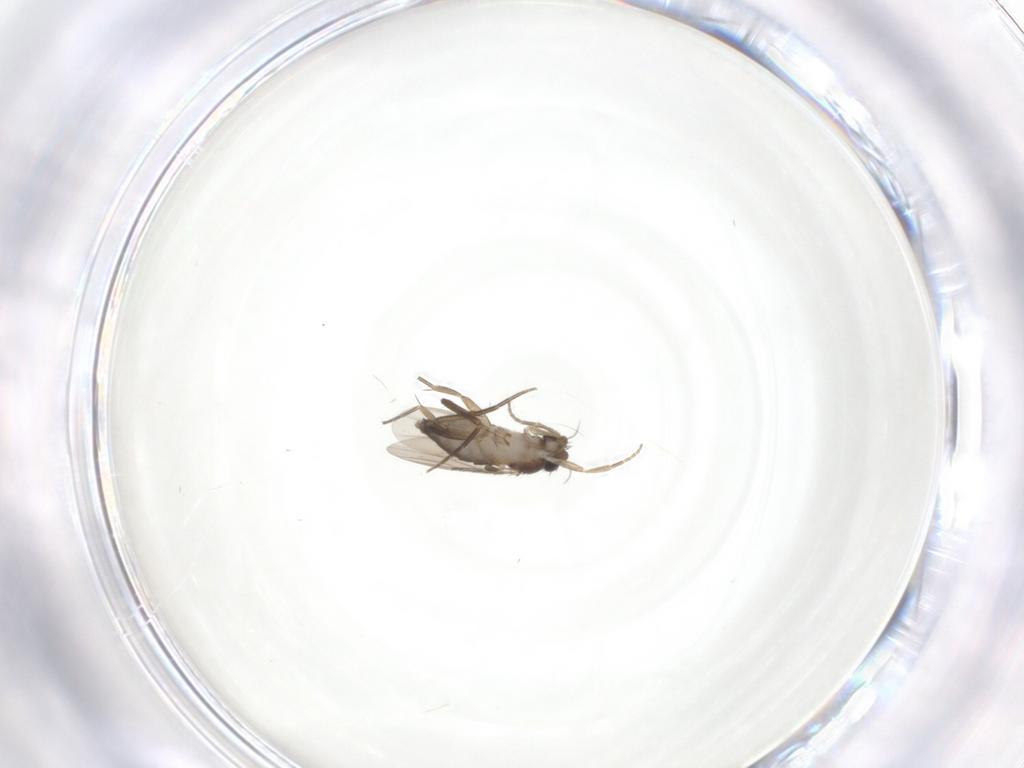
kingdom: Animalia
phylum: Arthropoda
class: Insecta
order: Diptera
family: Phoridae
